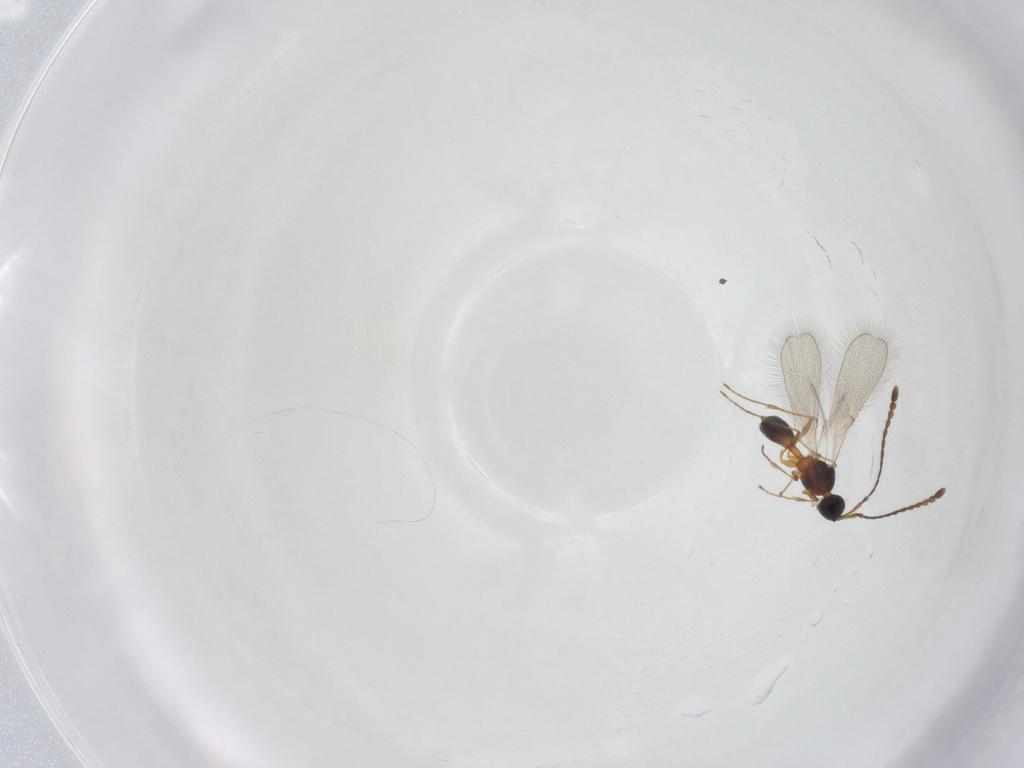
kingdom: Animalia
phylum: Arthropoda
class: Insecta
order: Hymenoptera
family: Diapriidae
